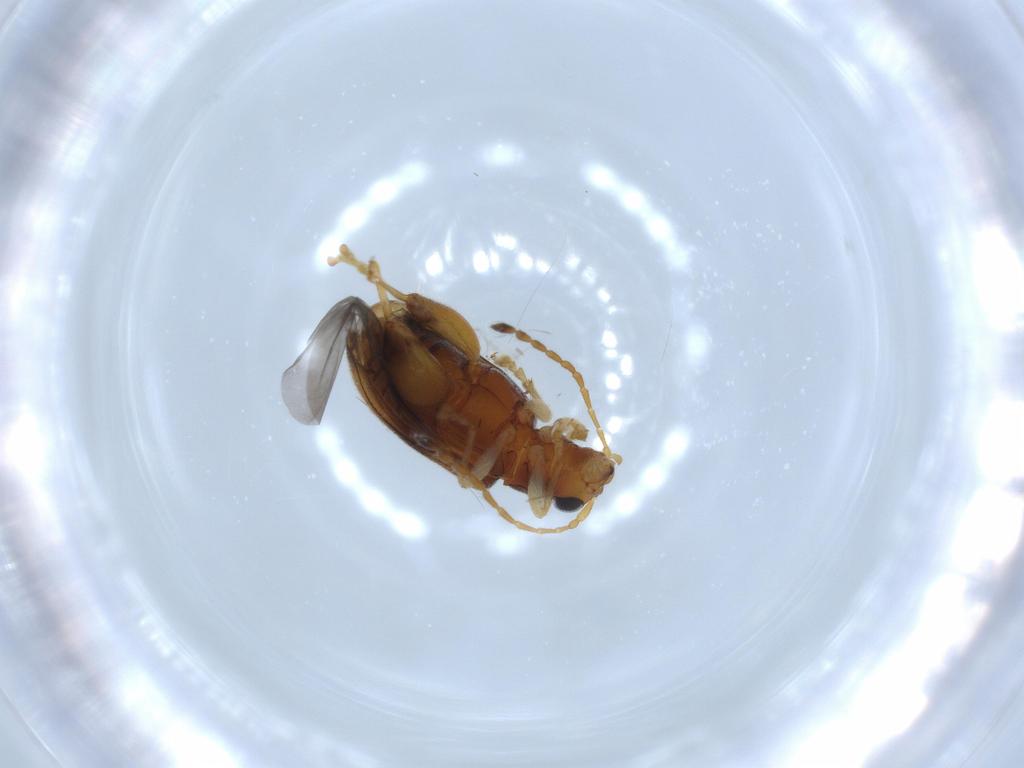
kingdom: Animalia
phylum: Arthropoda
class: Insecta
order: Coleoptera
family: Chrysomelidae
